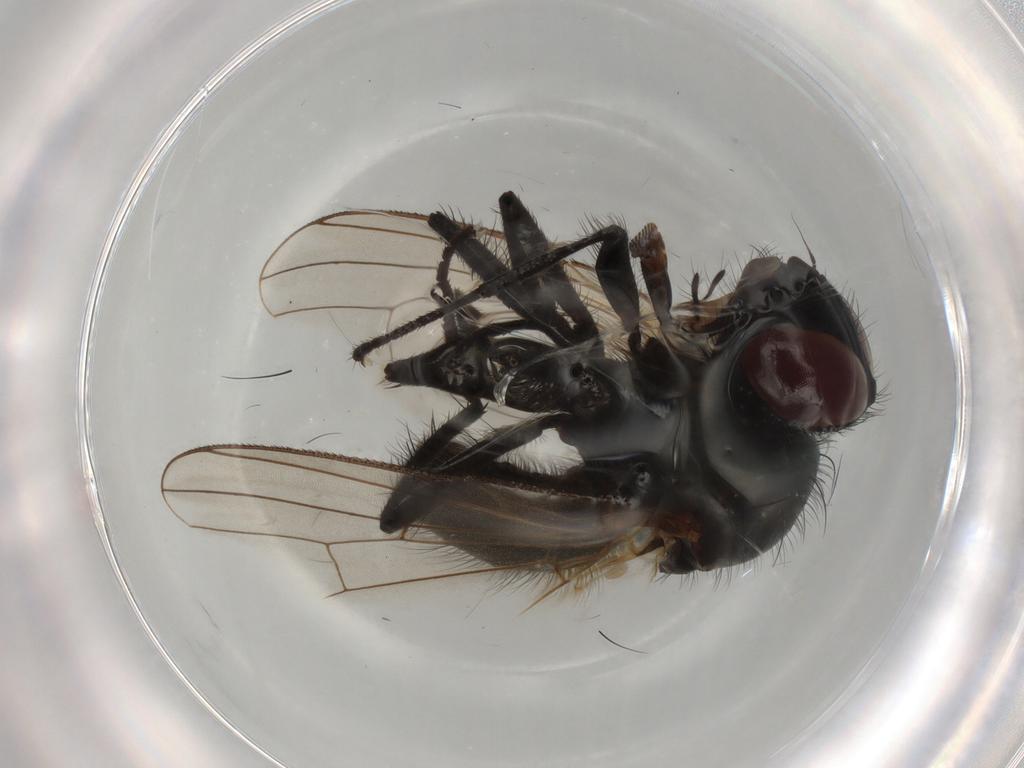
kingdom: Animalia
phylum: Arthropoda
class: Insecta
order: Diptera
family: Anthomyiidae
